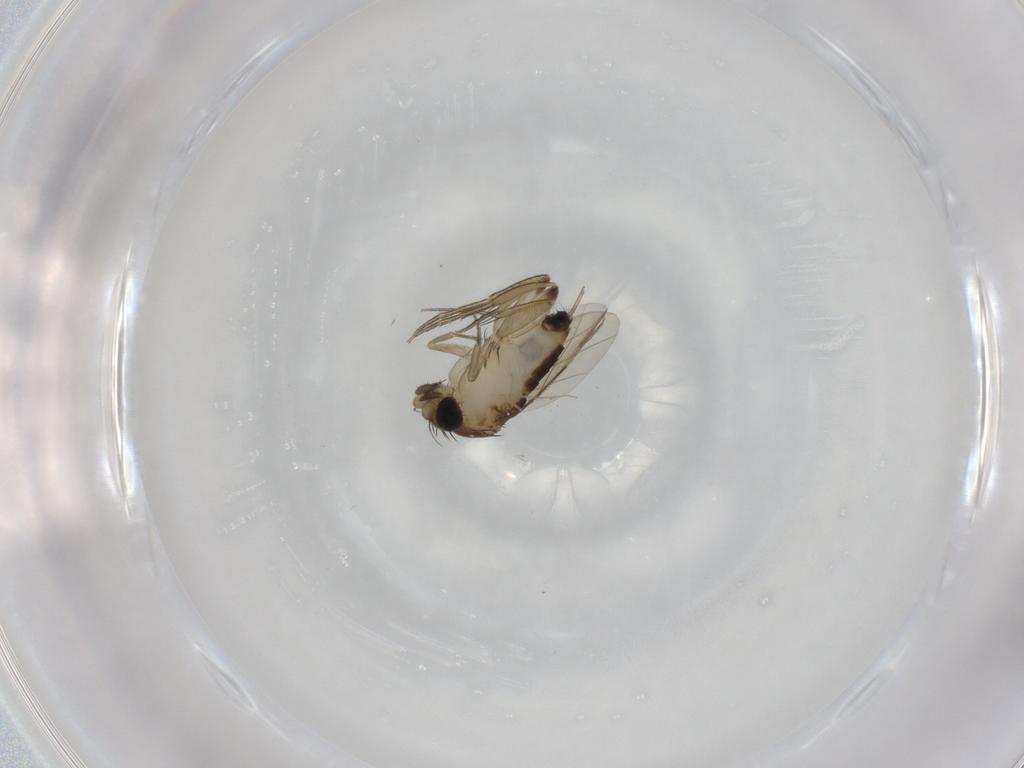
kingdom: Animalia
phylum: Arthropoda
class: Insecta
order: Diptera
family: Phoridae
